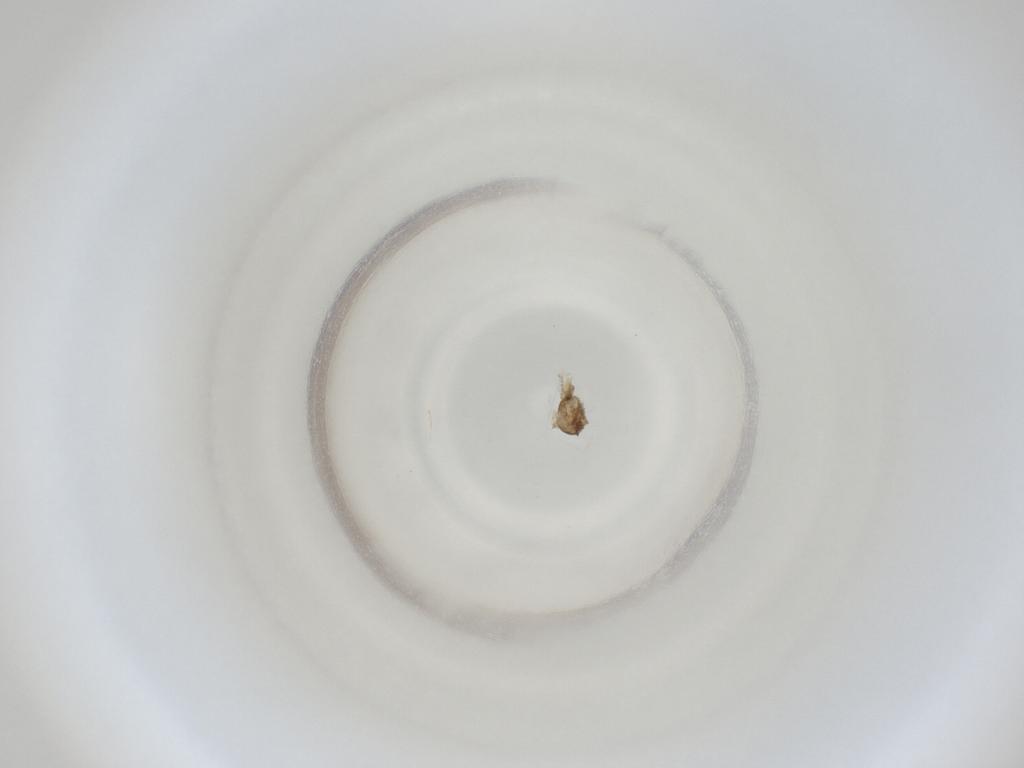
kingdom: Animalia
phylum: Arthropoda
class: Insecta
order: Diptera
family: Cecidomyiidae
